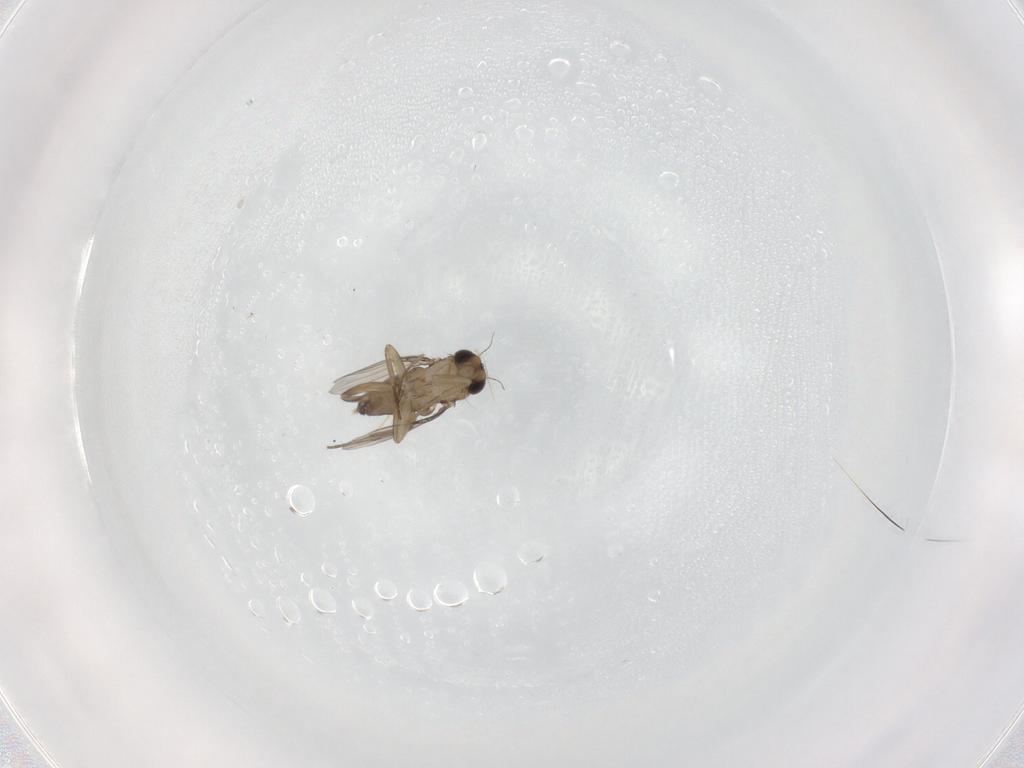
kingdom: Animalia
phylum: Arthropoda
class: Insecta
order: Diptera
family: Phoridae
